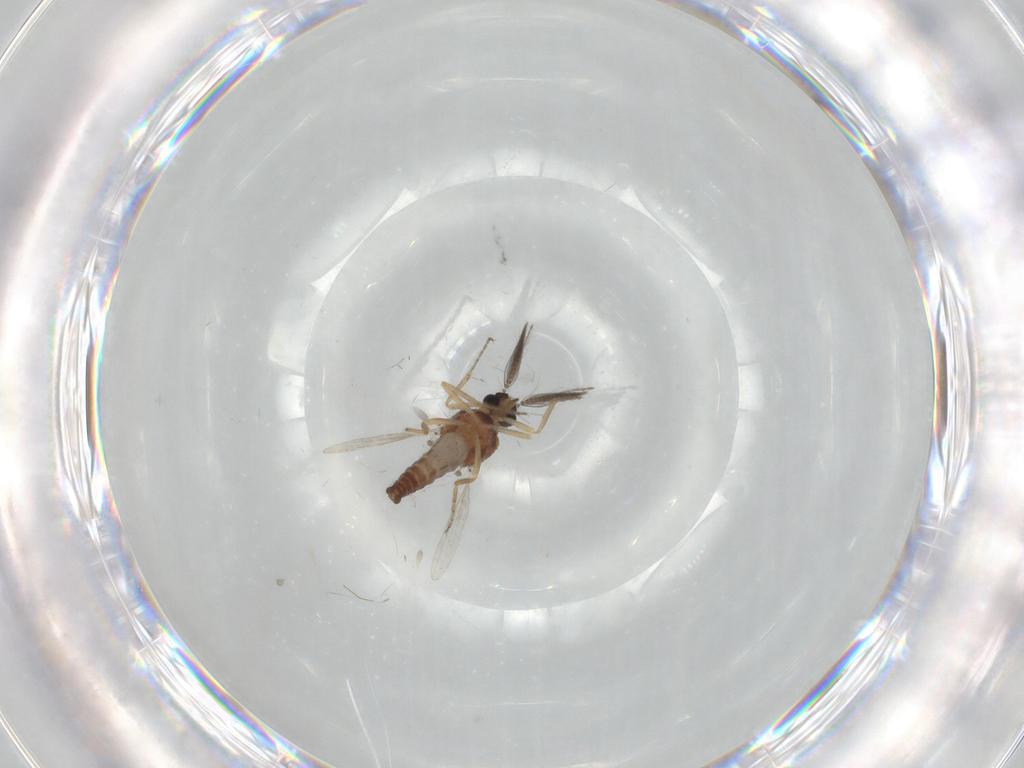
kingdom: Animalia
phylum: Arthropoda
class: Insecta
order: Diptera
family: Ceratopogonidae
